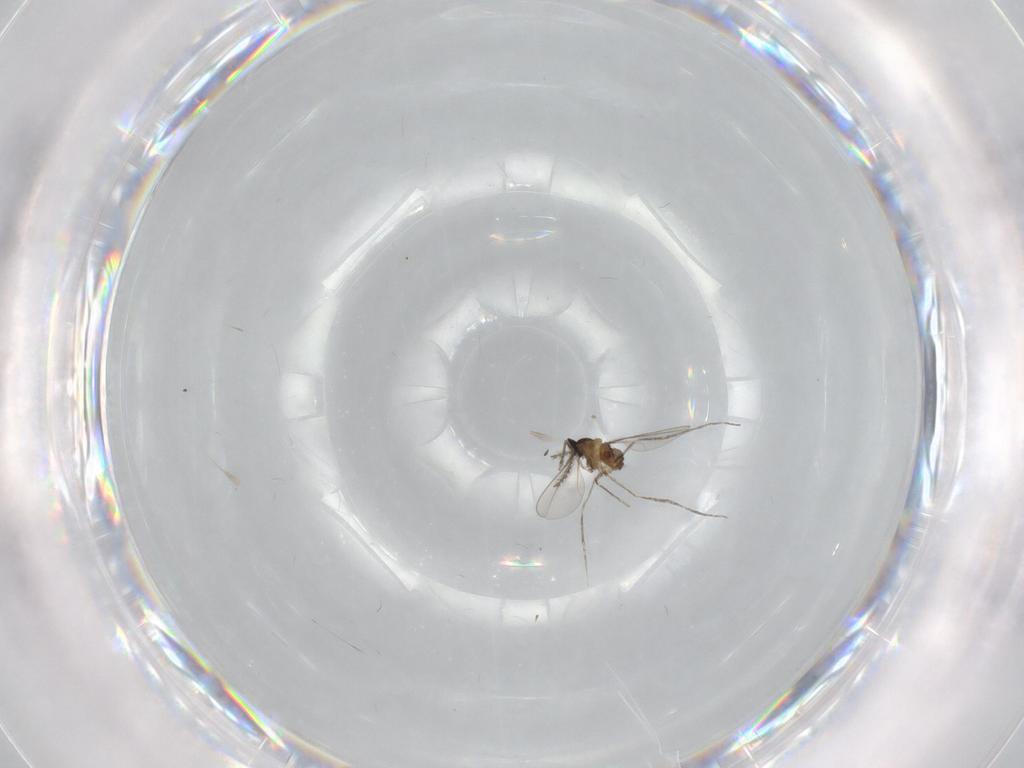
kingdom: Animalia
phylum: Arthropoda
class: Insecta
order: Diptera
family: Cecidomyiidae
